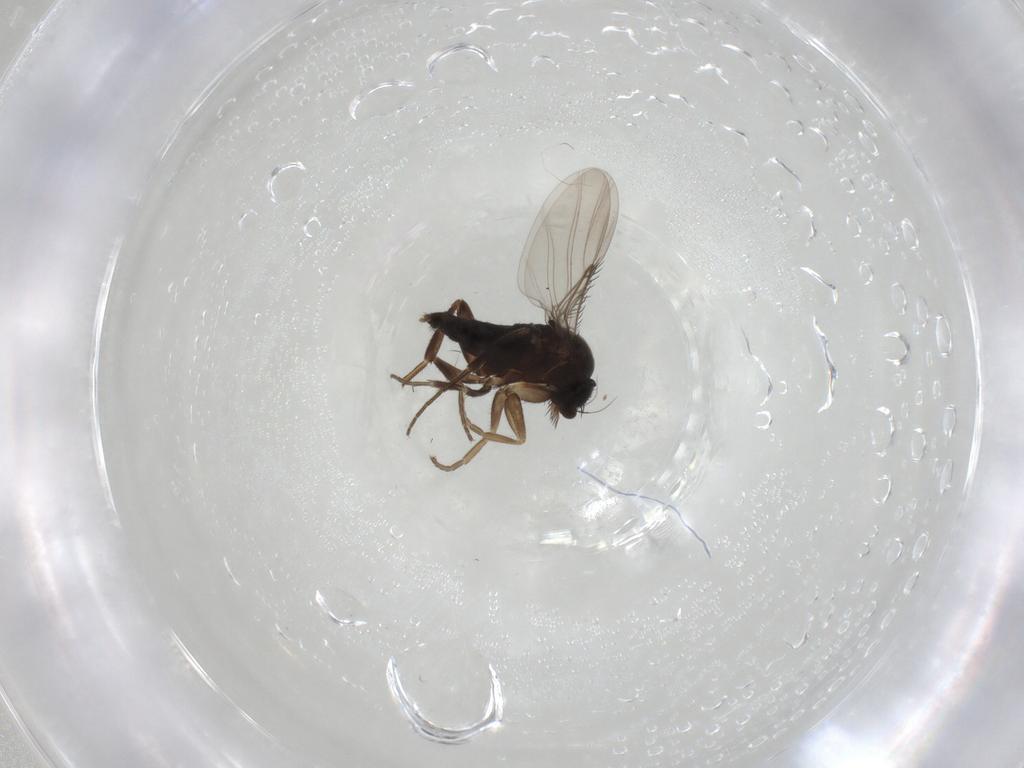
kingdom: Animalia
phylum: Arthropoda
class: Insecta
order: Diptera
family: Phoridae
